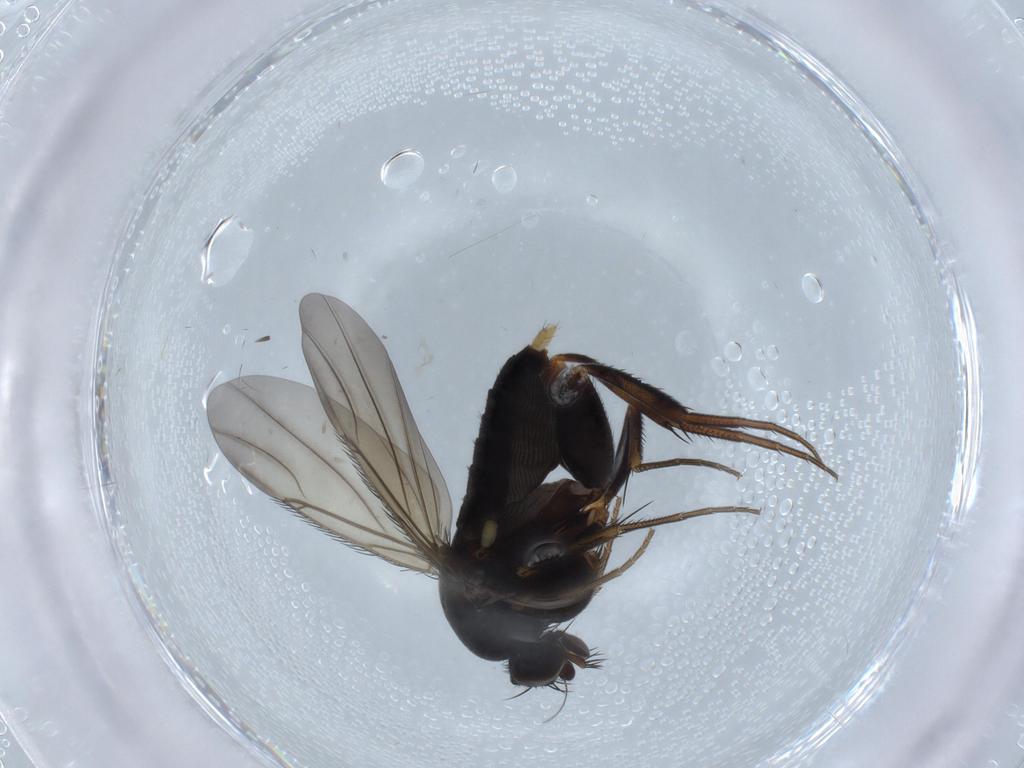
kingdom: Animalia
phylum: Arthropoda
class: Insecta
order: Diptera
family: Phoridae
